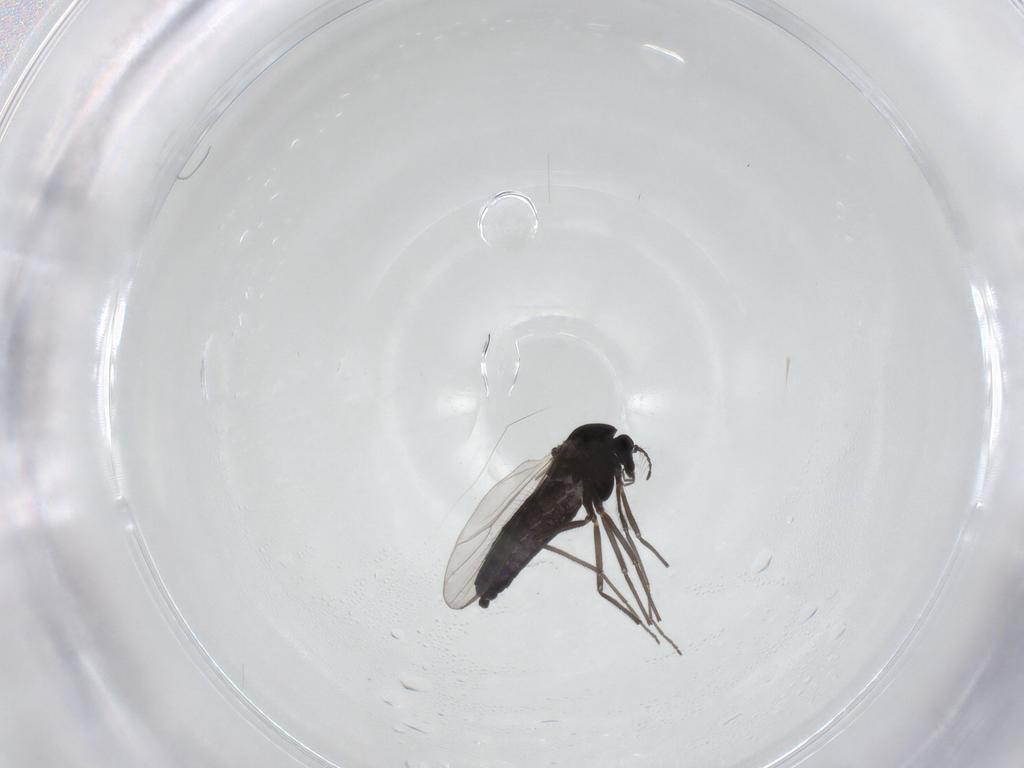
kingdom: Animalia
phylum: Arthropoda
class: Insecta
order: Diptera
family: Chironomidae
